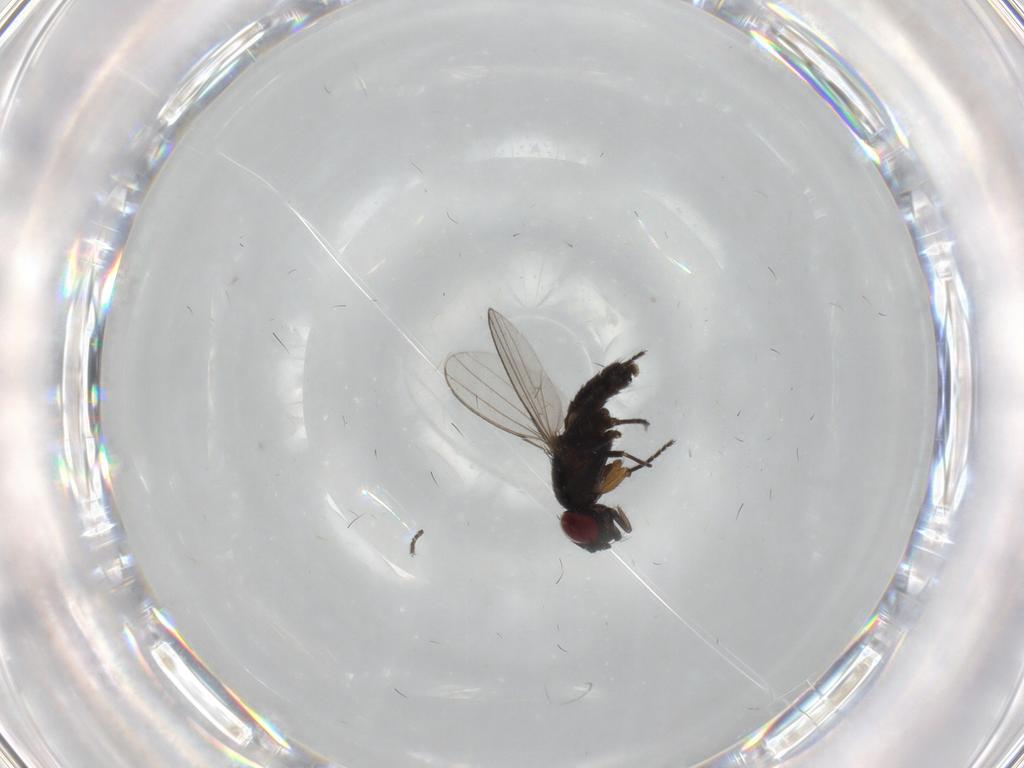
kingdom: Animalia
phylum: Arthropoda
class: Insecta
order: Diptera
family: Milichiidae
